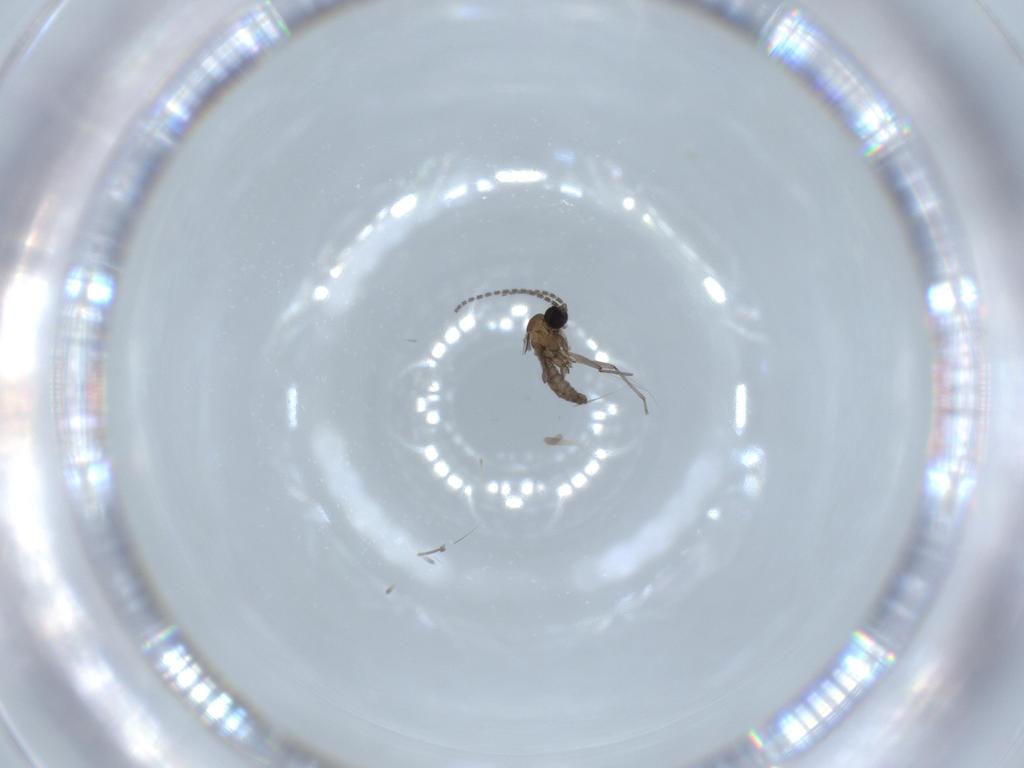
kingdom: Animalia
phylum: Arthropoda
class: Insecta
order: Diptera
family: Sciaridae
